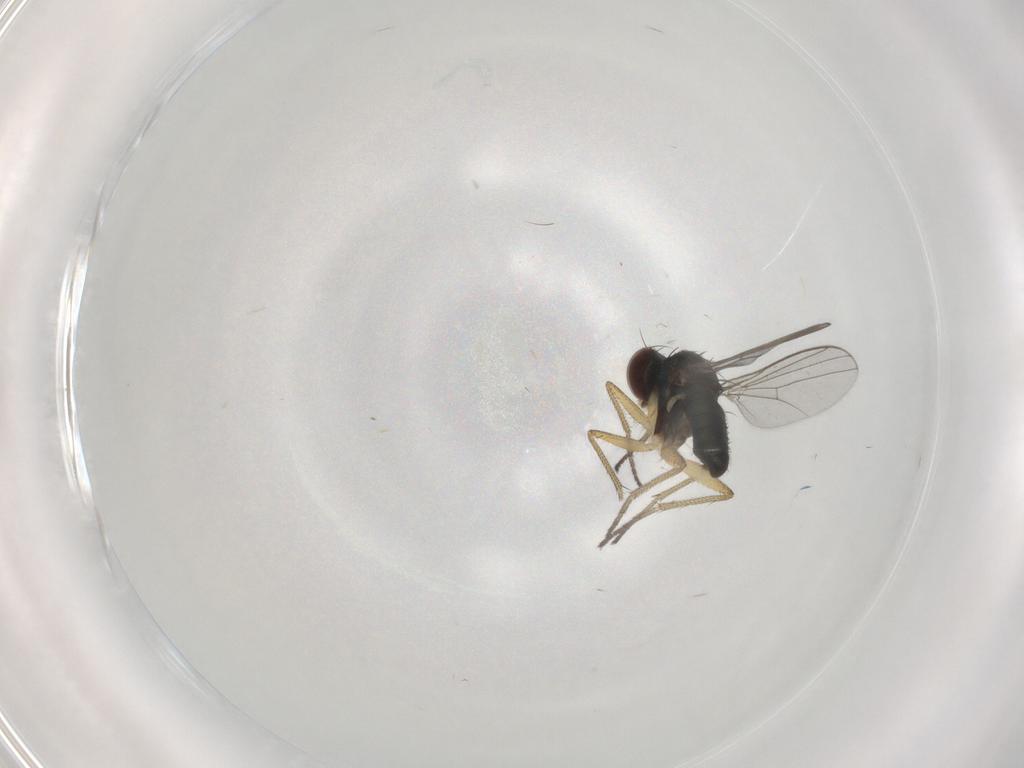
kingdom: Animalia
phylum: Arthropoda
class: Insecta
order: Diptera
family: Dolichopodidae
